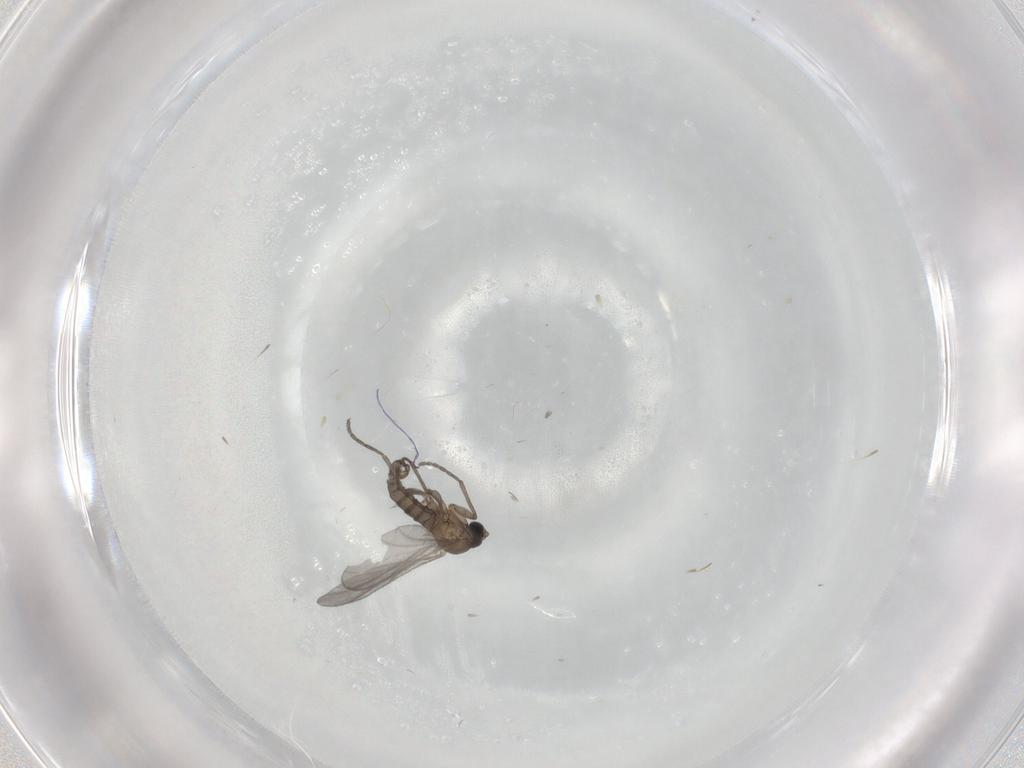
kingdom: Animalia
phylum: Arthropoda
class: Insecta
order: Diptera
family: Sciaridae
